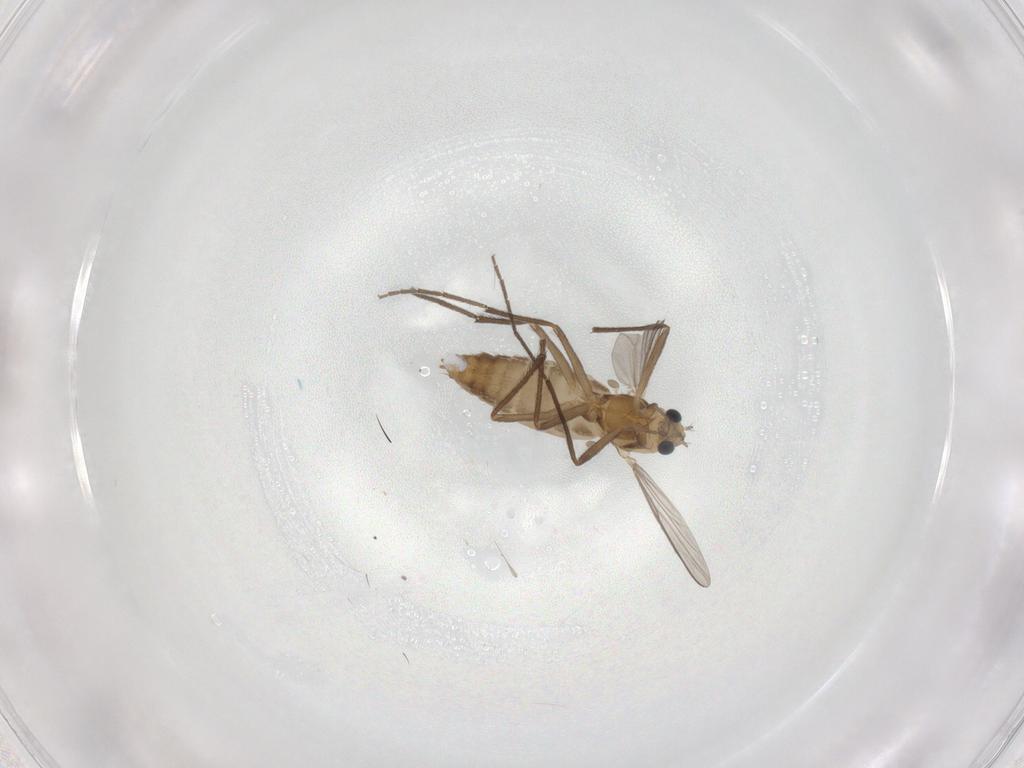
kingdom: Animalia
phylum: Arthropoda
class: Insecta
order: Diptera
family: Chironomidae
